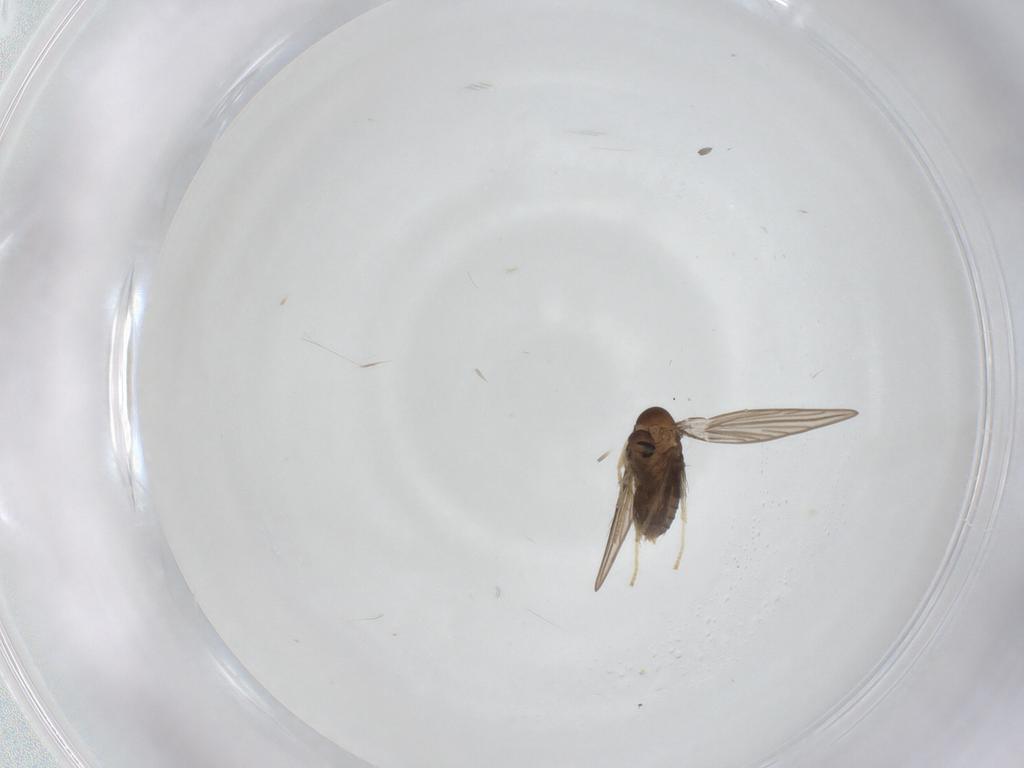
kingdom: Animalia
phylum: Arthropoda
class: Insecta
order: Diptera
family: Psychodidae
